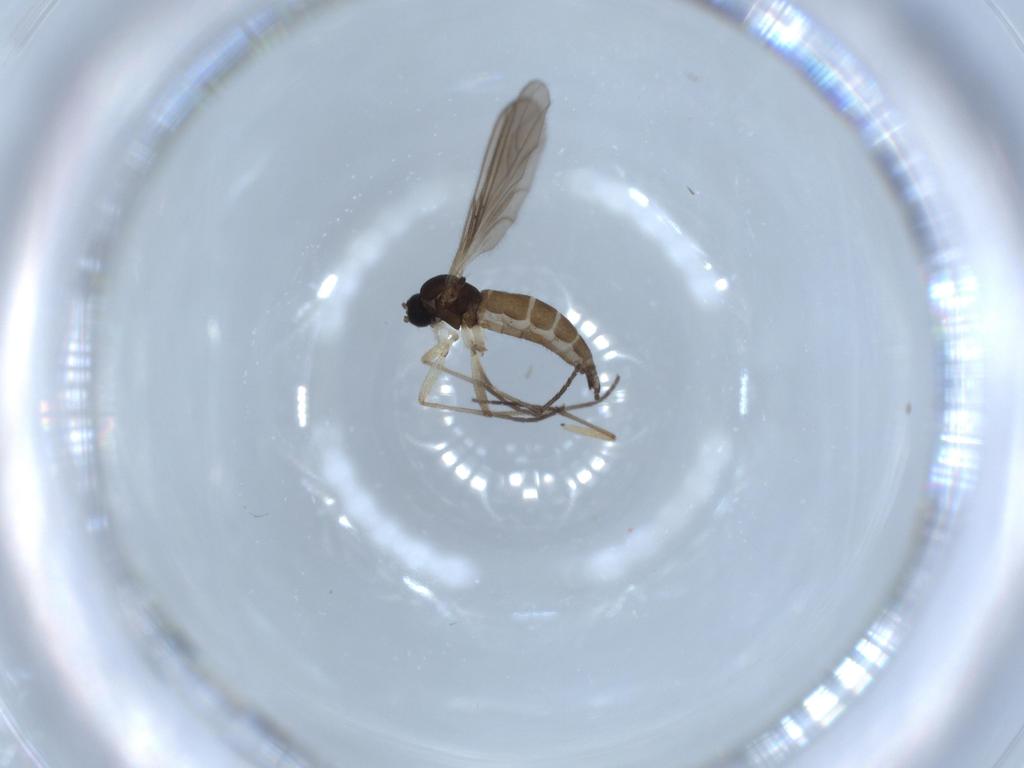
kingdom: Animalia
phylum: Arthropoda
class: Insecta
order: Diptera
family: Sciaridae
